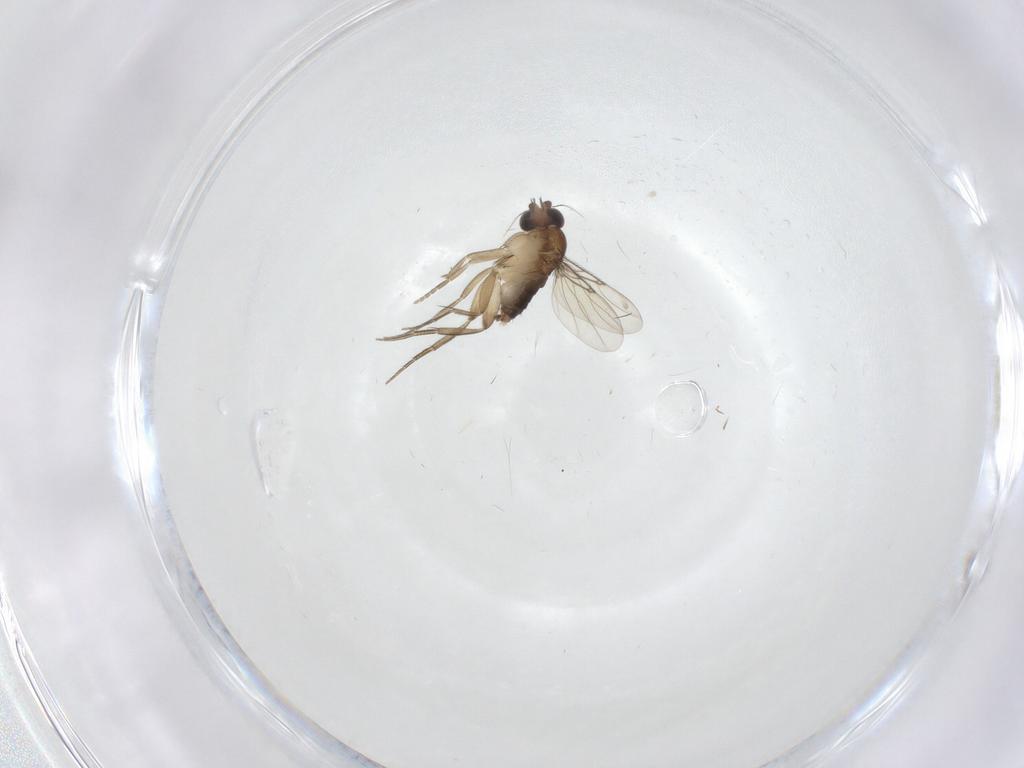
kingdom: Animalia
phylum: Arthropoda
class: Insecta
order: Diptera
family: Phoridae
